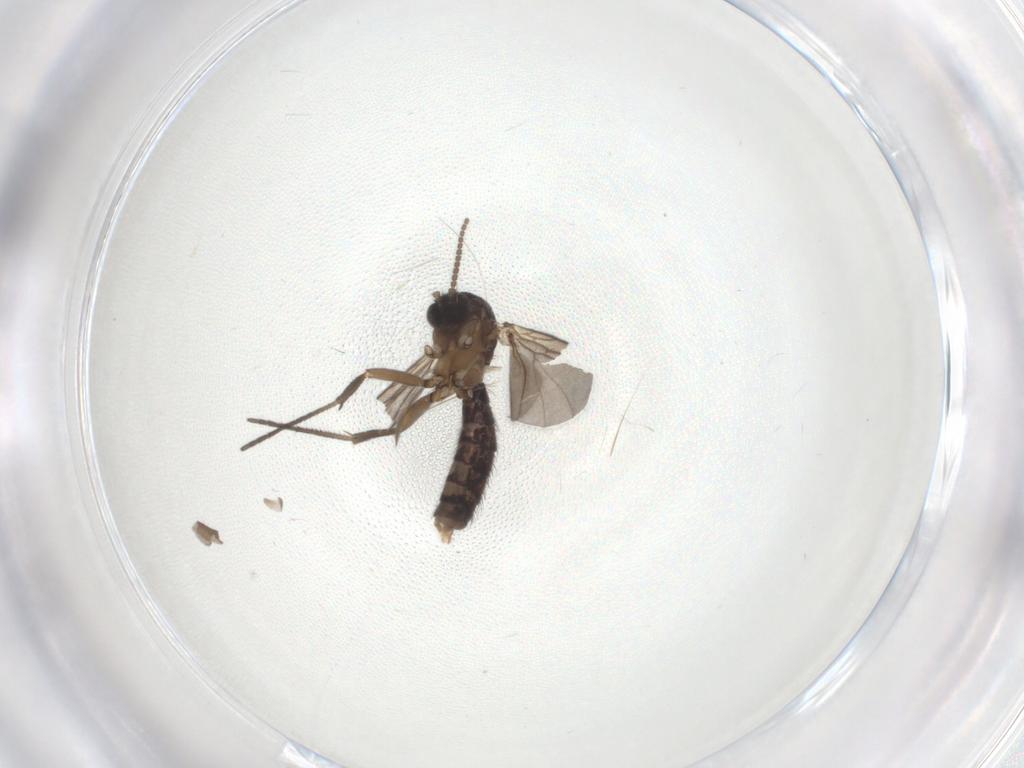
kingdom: Animalia
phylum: Arthropoda
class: Insecta
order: Diptera
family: Mycetophilidae
